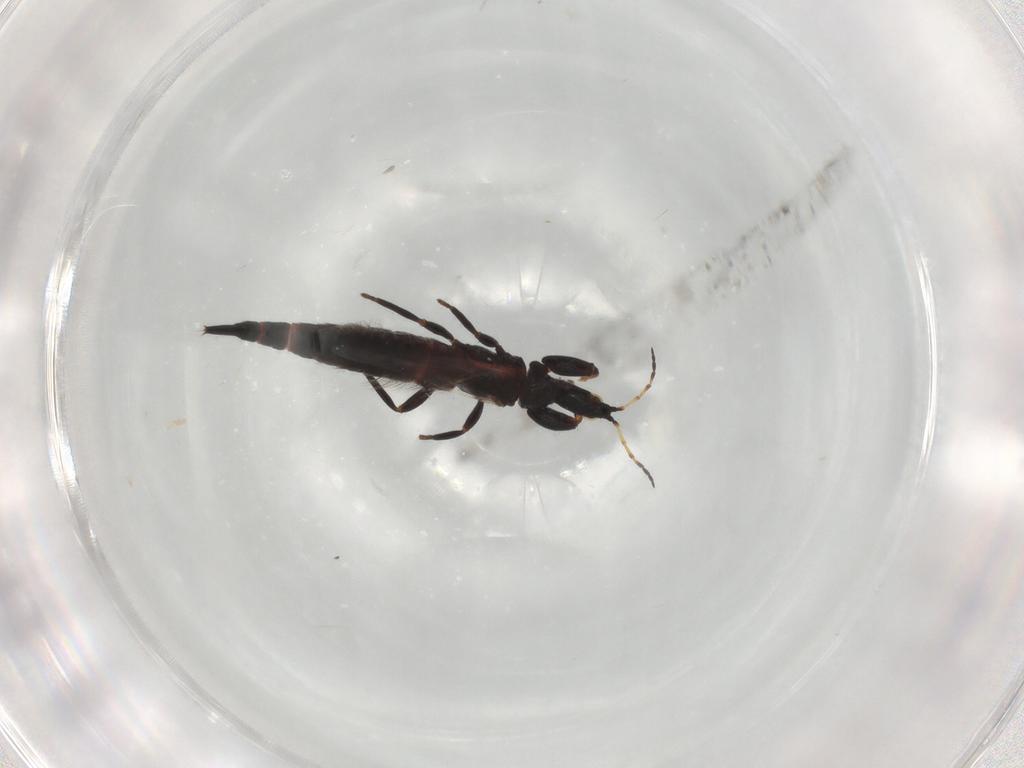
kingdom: Animalia
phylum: Arthropoda
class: Insecta
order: Thysanoptera
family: Phlaeothripidae
